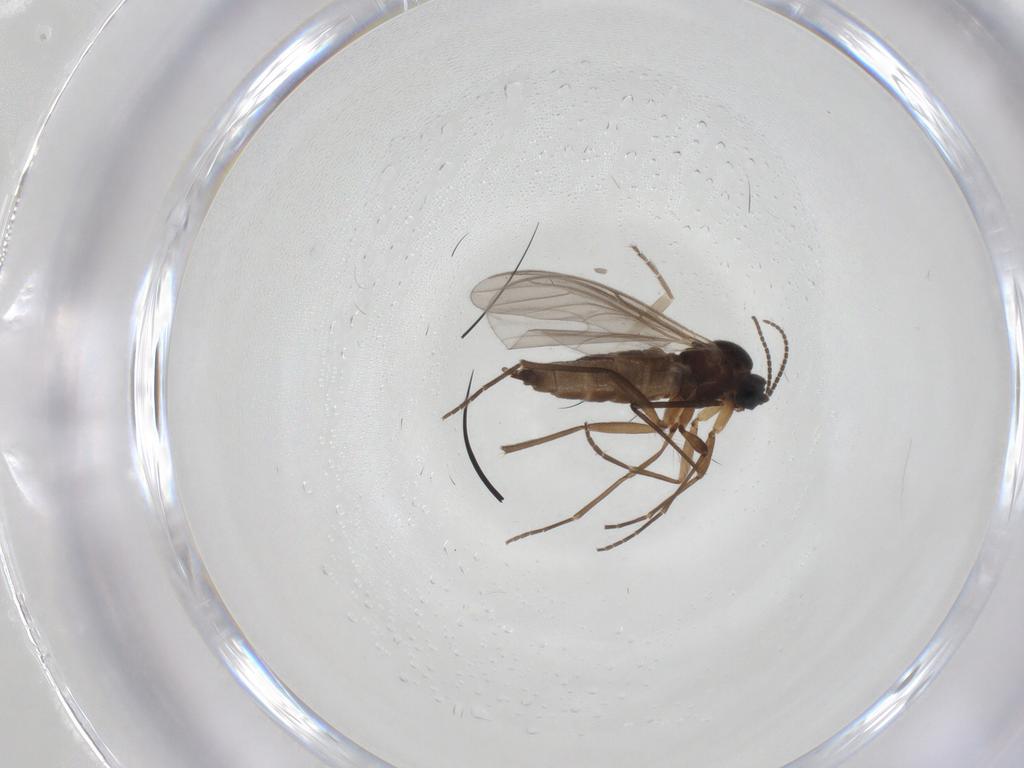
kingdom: Animalia
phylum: Arthropoda
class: Insecta
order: Diptera
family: Sciaridae
